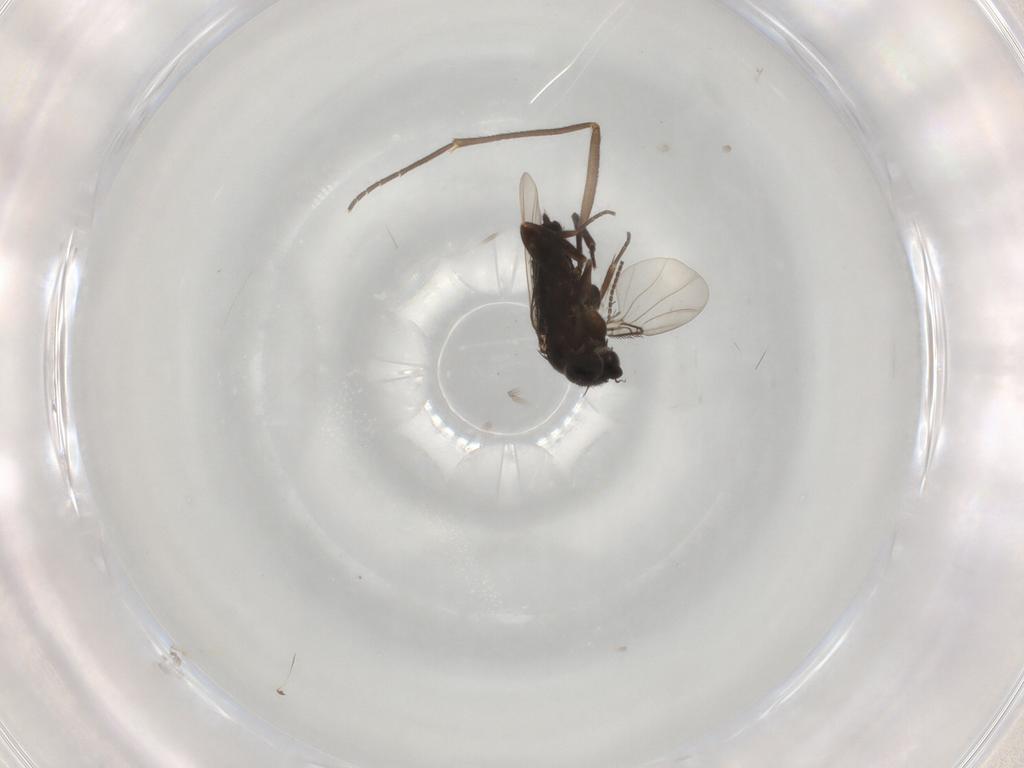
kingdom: Animalia
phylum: Arthropoda
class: Insecta
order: Diptera
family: Phoridae
